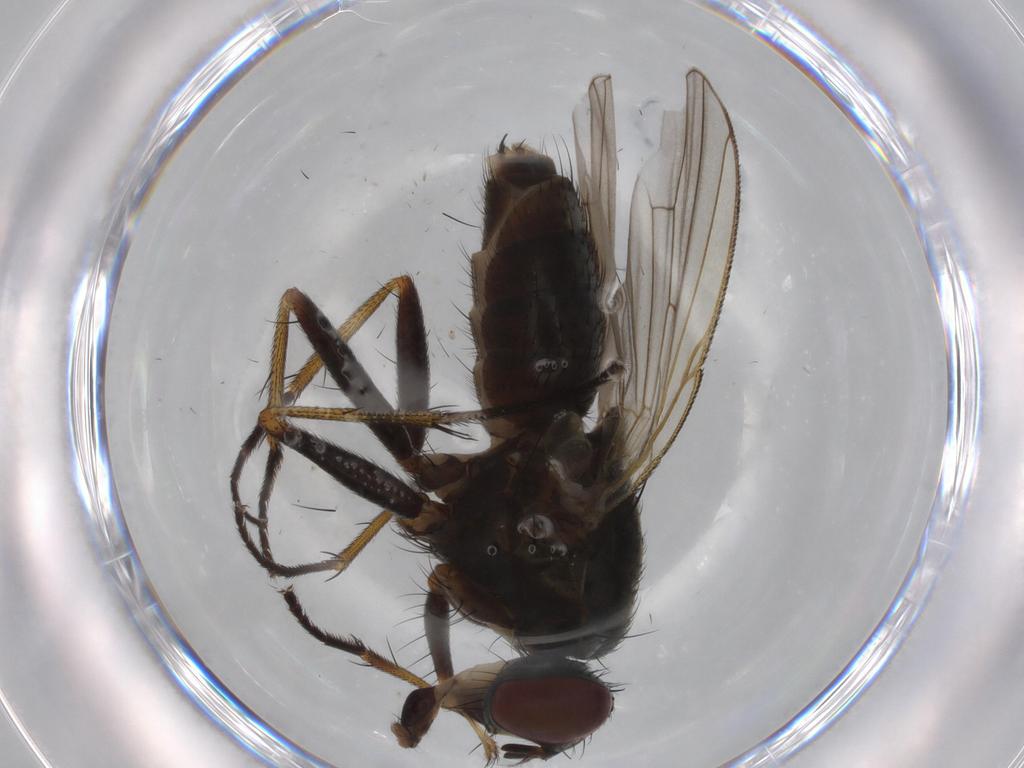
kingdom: Animalia
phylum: Arthropoda
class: Insecta
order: Diptera
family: Muscidae
